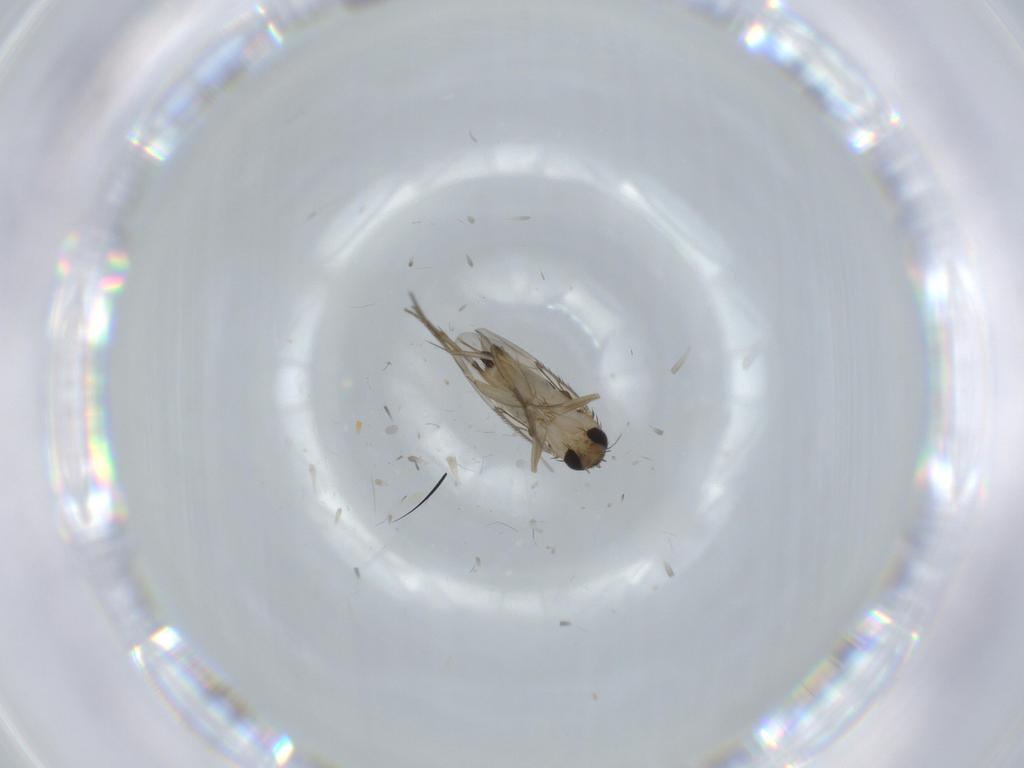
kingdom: Animalia
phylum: Arthropoda
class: Insecta
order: Diptera
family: Phoridae
